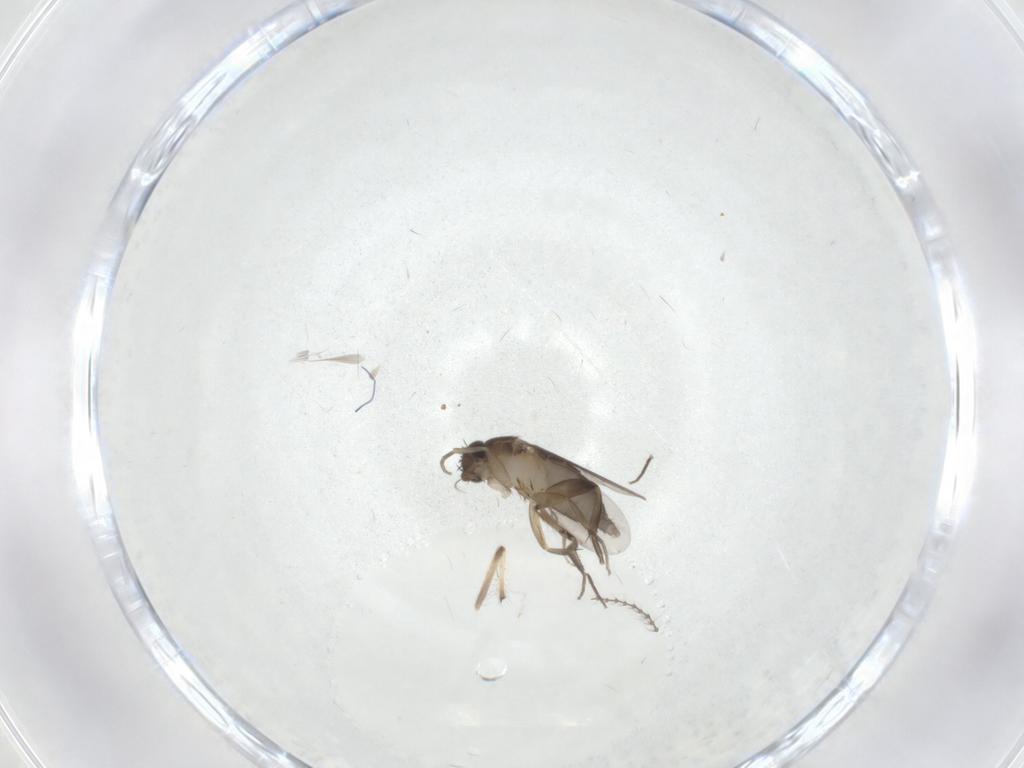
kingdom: Animalia
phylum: Arthropoda
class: Insecta
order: Diptera
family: Phoridae
